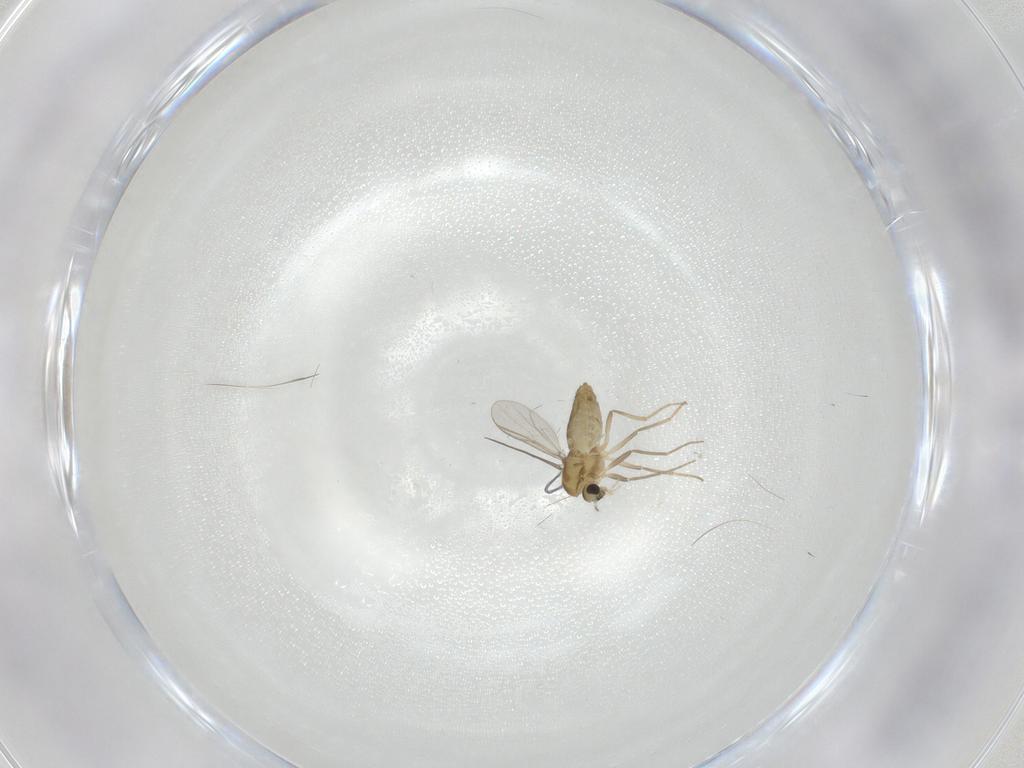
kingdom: Animalia
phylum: Arthropoda
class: Insecta
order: Diptera
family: Chironomidae
